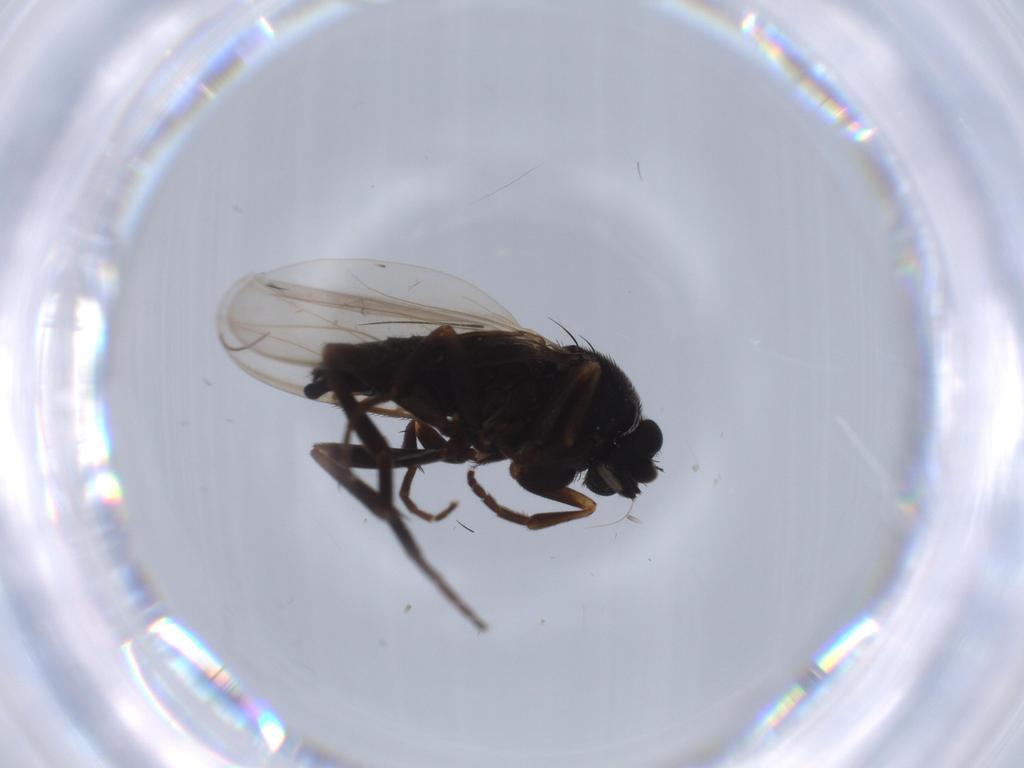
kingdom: Animalia
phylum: Arthropoda
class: Insecta
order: Diptera
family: Phoridae
